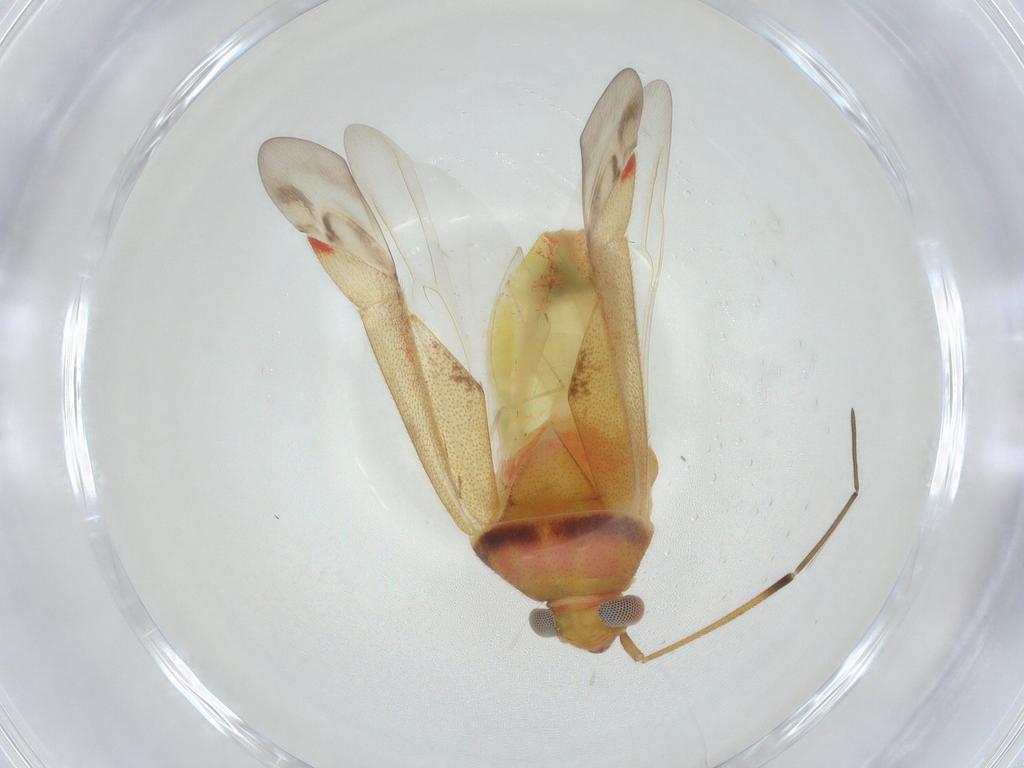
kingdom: Animalia
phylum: Arthropoda
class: Insecta
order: Diptera
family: Cecidomyiidae
